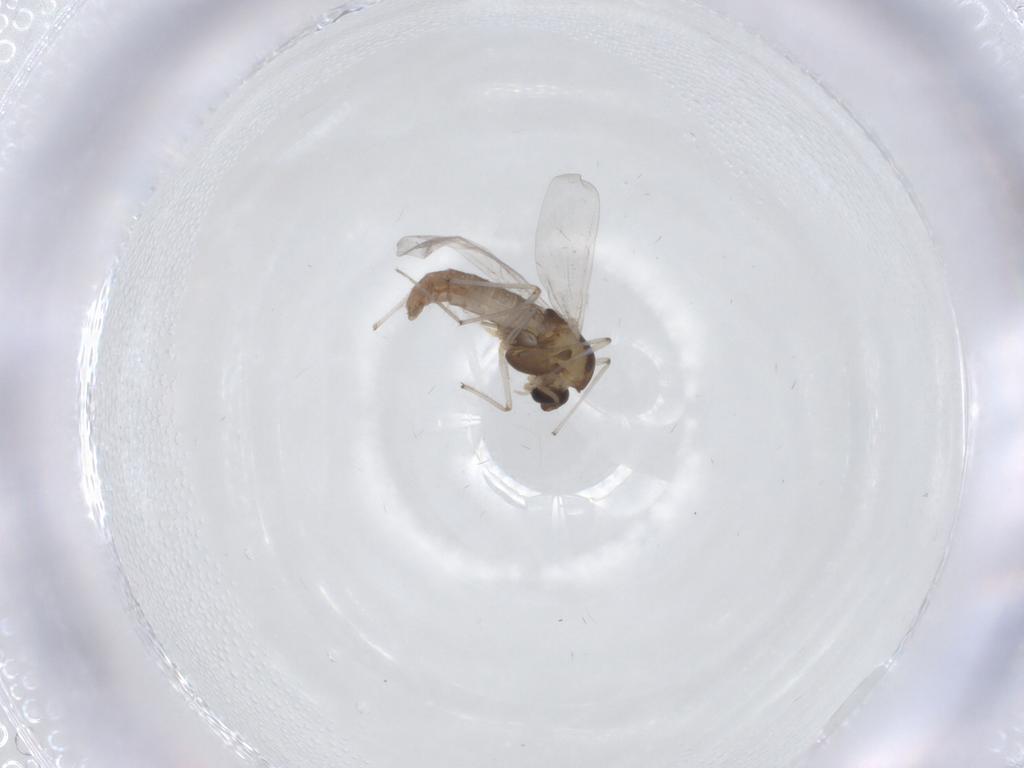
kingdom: Animalia
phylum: Arthropoda
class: Insecta
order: Diptera
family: Chironomidae
